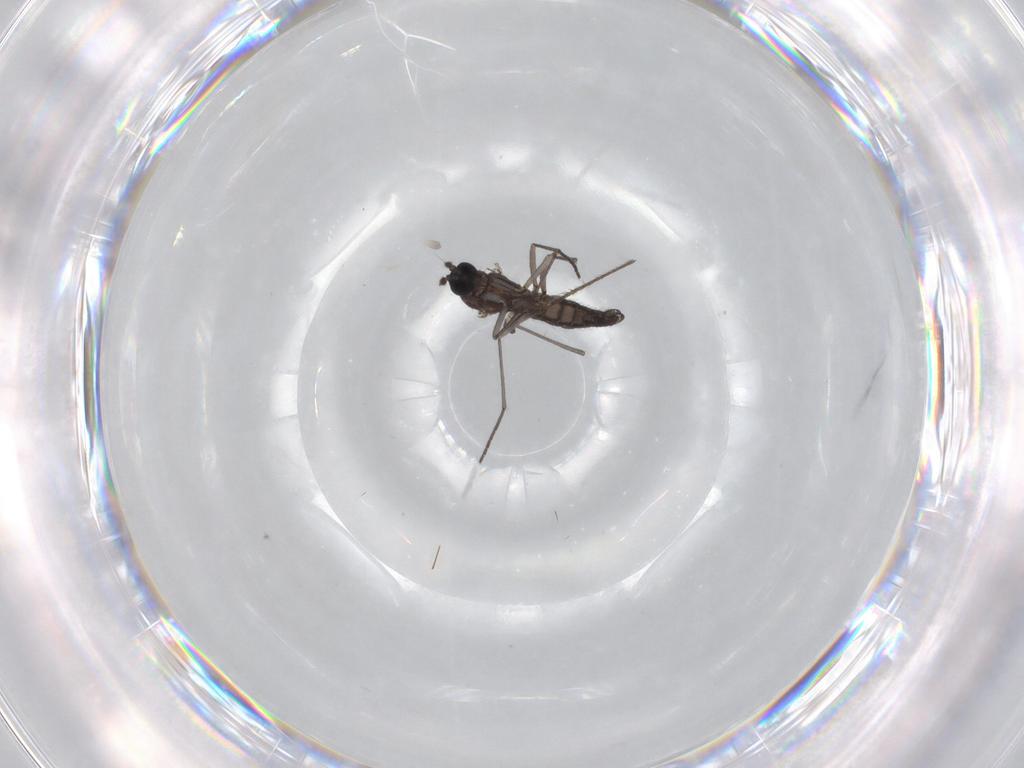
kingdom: Animalia
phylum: Arthropoda
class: Insecta
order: Diptera
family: Sciaridae
